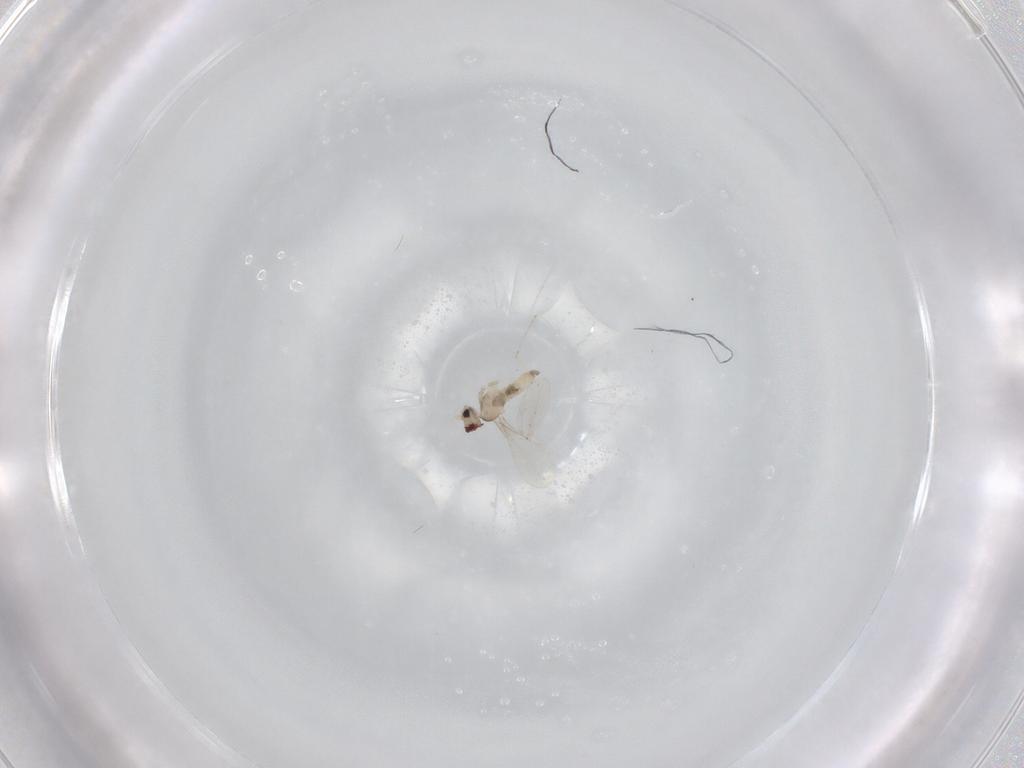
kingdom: Animalia
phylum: Arthropoda
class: Insecta
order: Diptera
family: Cecidomyiidae
